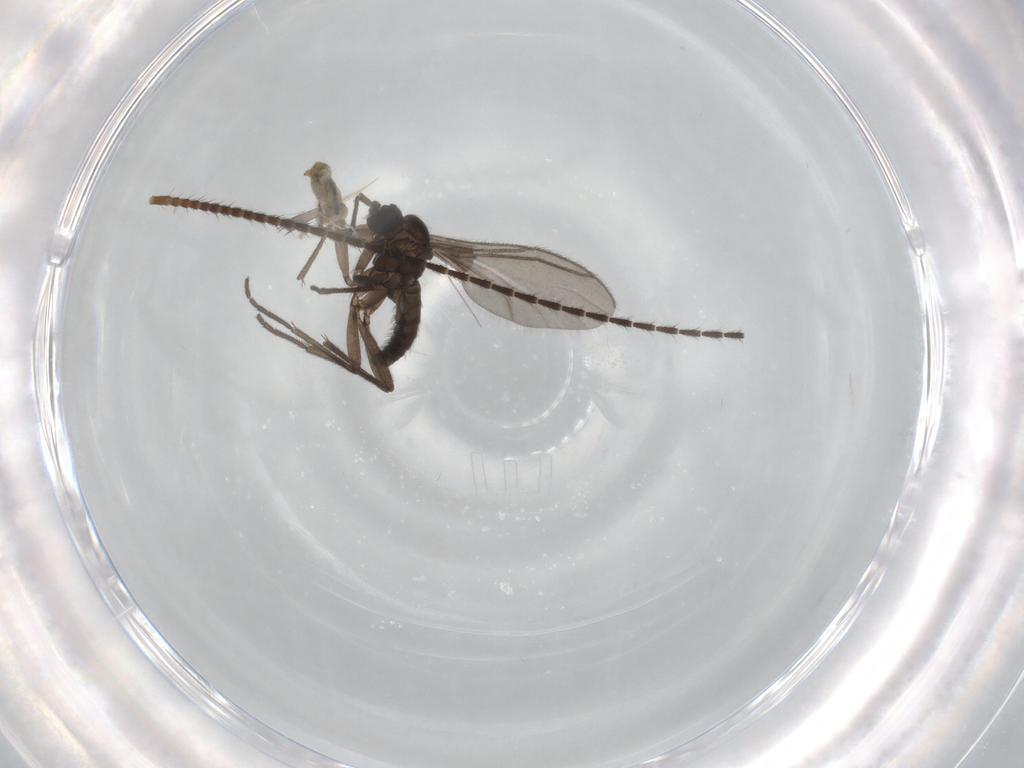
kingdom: Animalia
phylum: Arthropoda
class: Insecta
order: Diptera
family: Sciaridae
